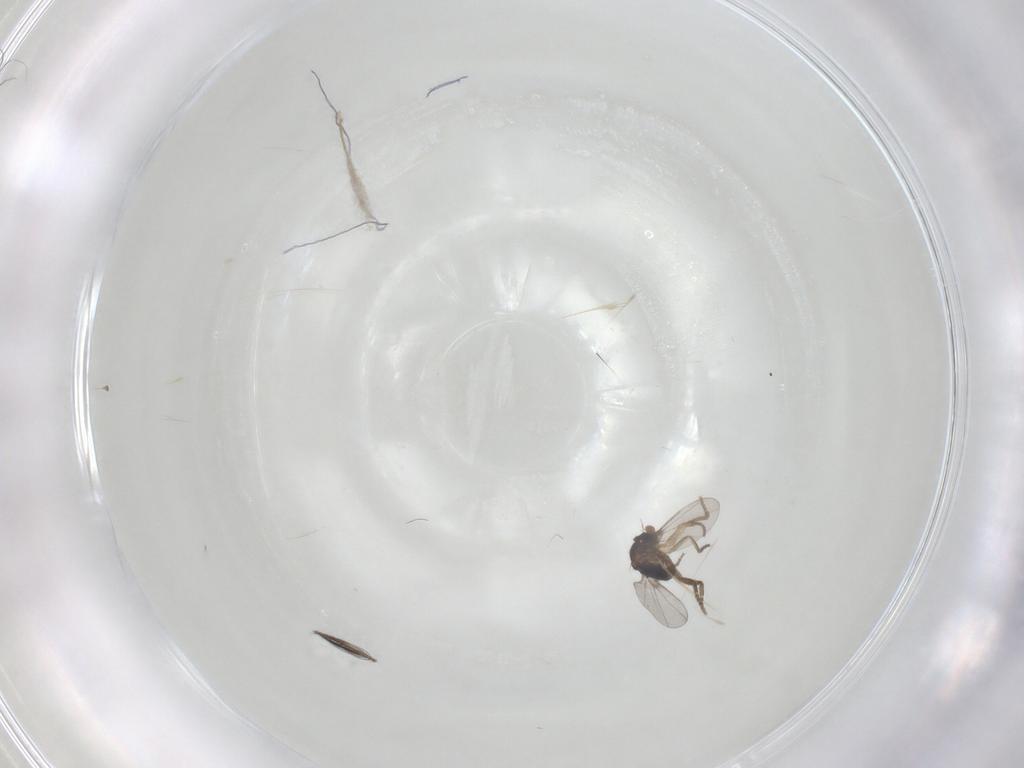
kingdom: Animalia
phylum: Arthropoda
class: Insecta
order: Diptera
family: Phoridae
